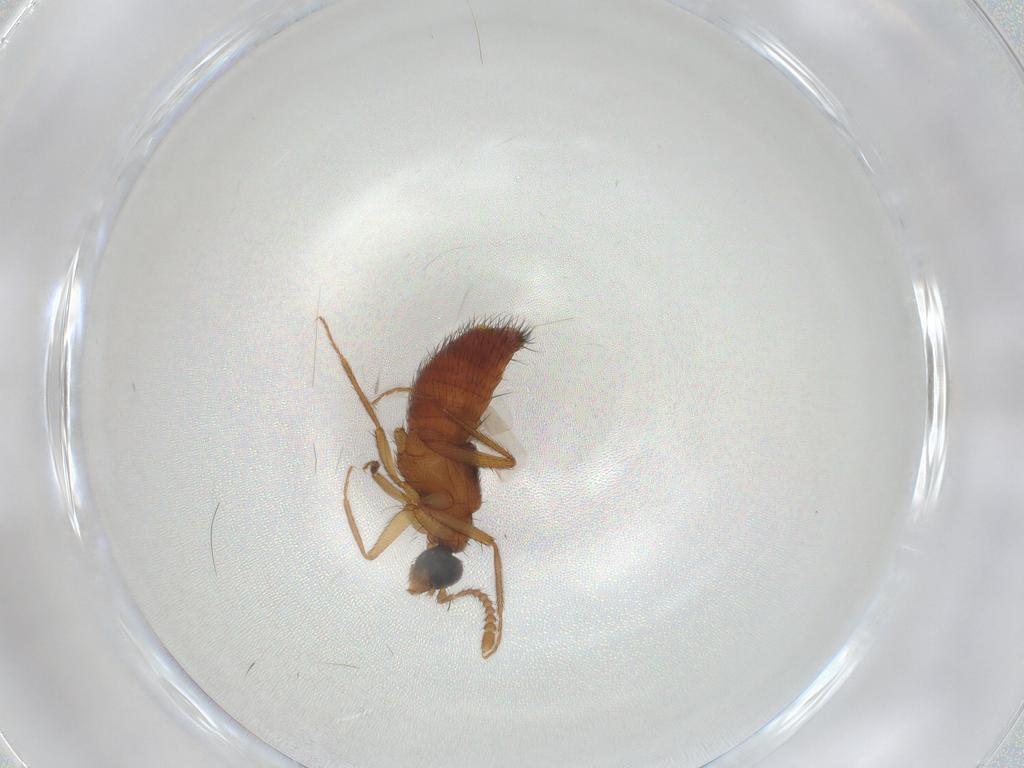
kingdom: Animalia
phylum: Arthropoda
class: Insecta
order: Coleoptera
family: Staphylinidae
